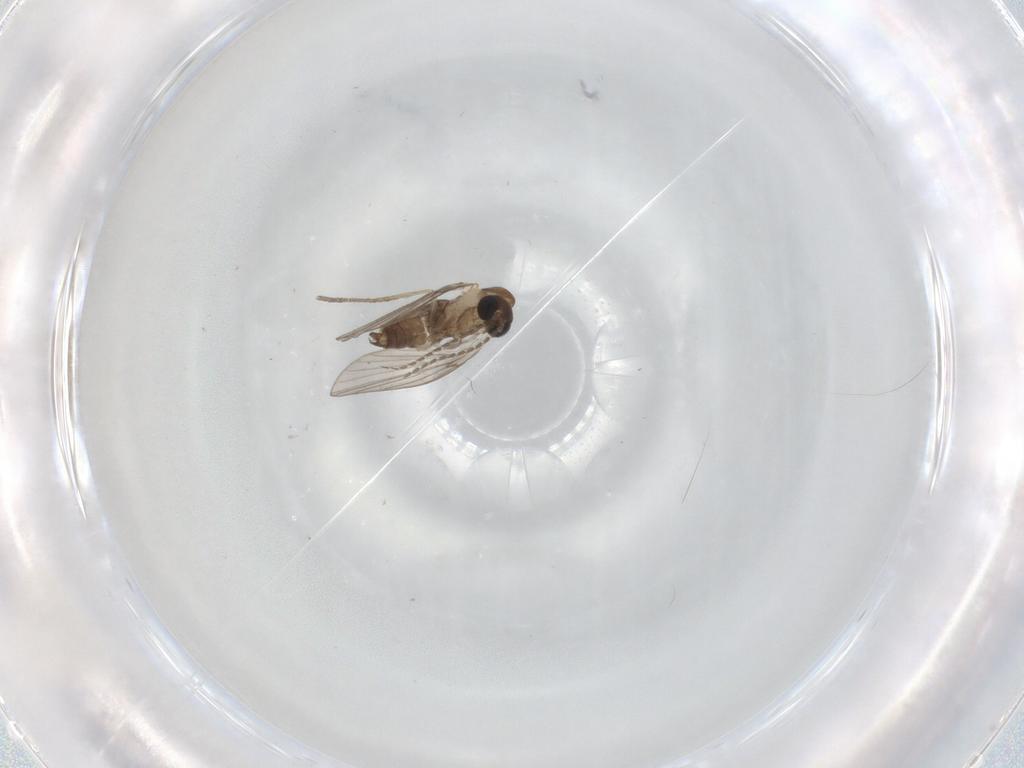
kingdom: Animalia
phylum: Arthropoda
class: Insecta
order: Diptera
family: Psychodidae
